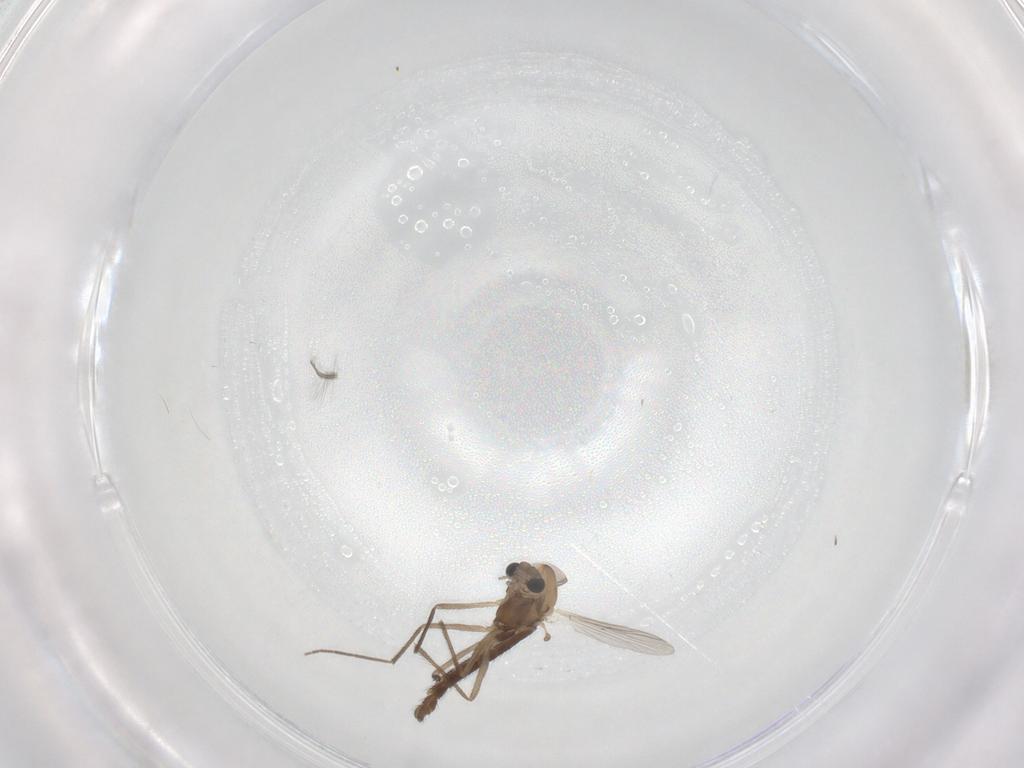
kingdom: Animalia
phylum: Arthropoda
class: Insecta
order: Diptera
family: Chironomidae
